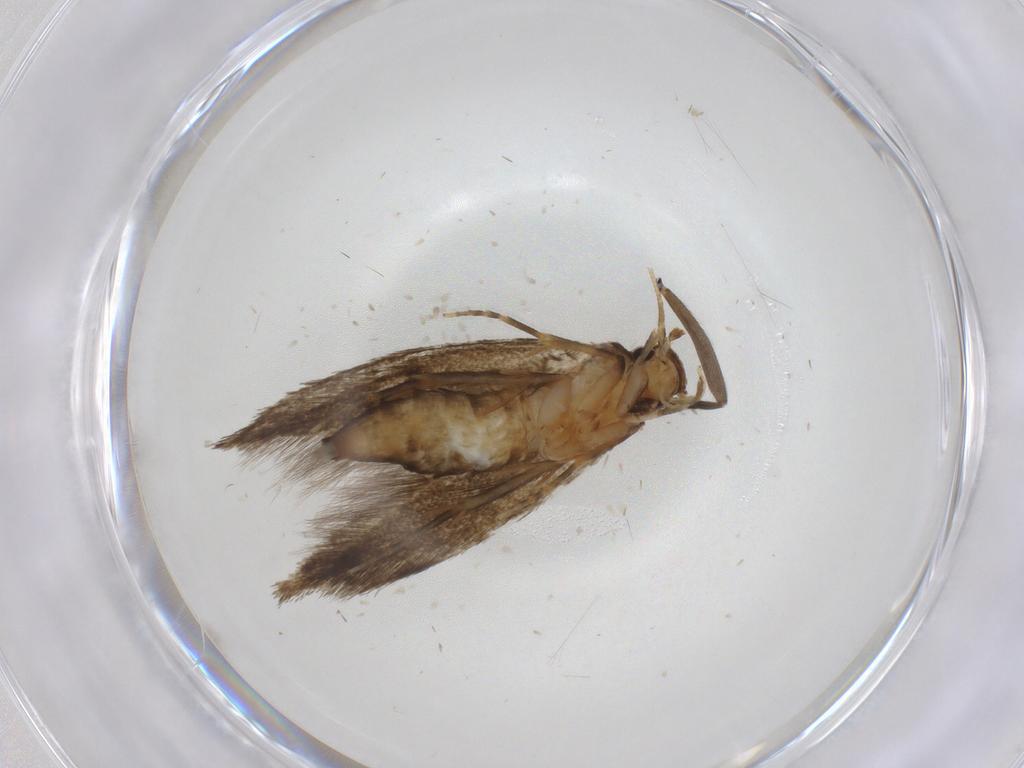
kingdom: Animalia
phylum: Arthropoda
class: Insecta
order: Lepidoptera
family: Tineidae
